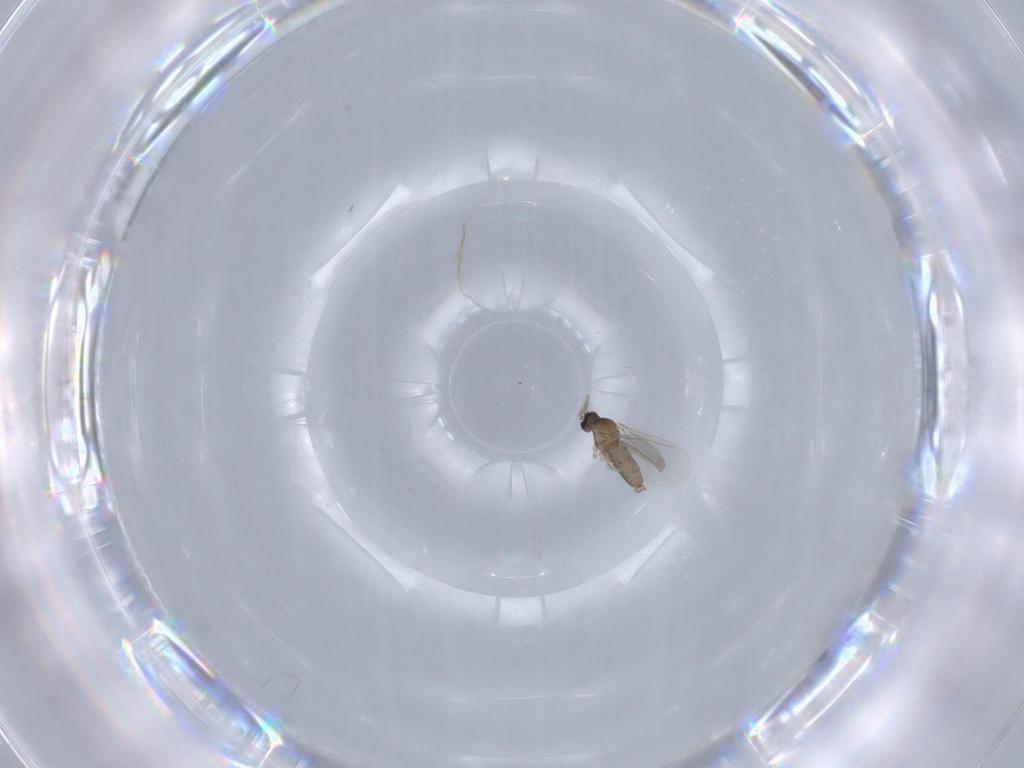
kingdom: Animalia
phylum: Arthropoda
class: Insecta
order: Diptera
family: Cecidomyiidae
